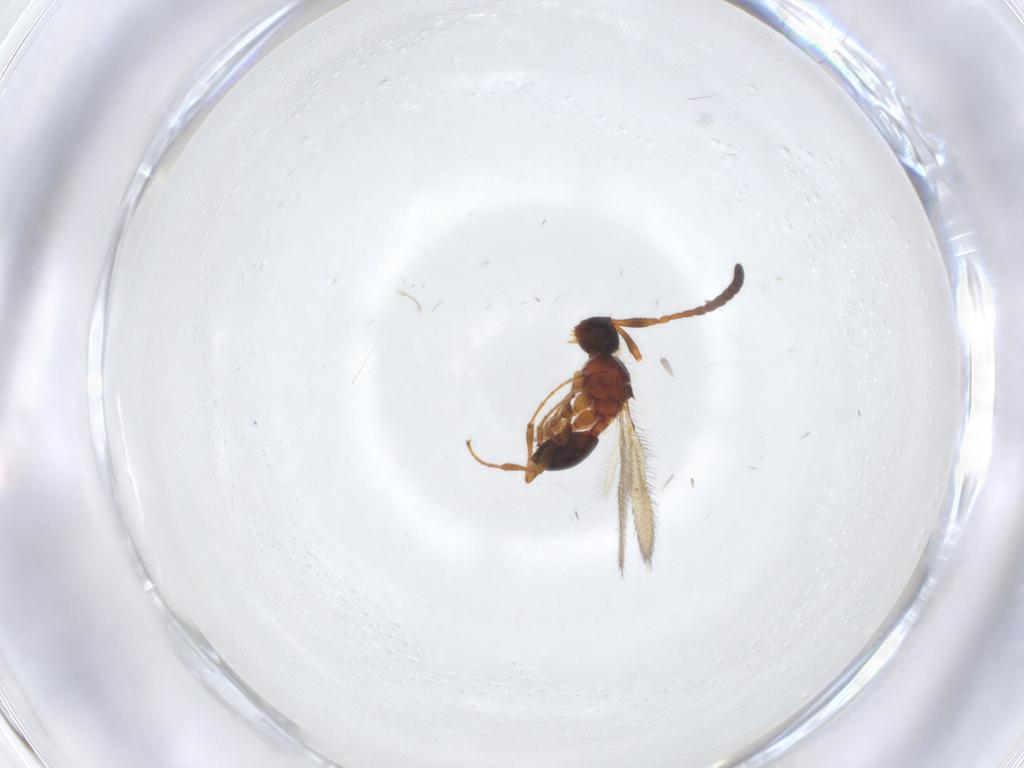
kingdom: Animalia
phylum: Arthropoda
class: Insecta
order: Hymenoptera
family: Diapriidae
